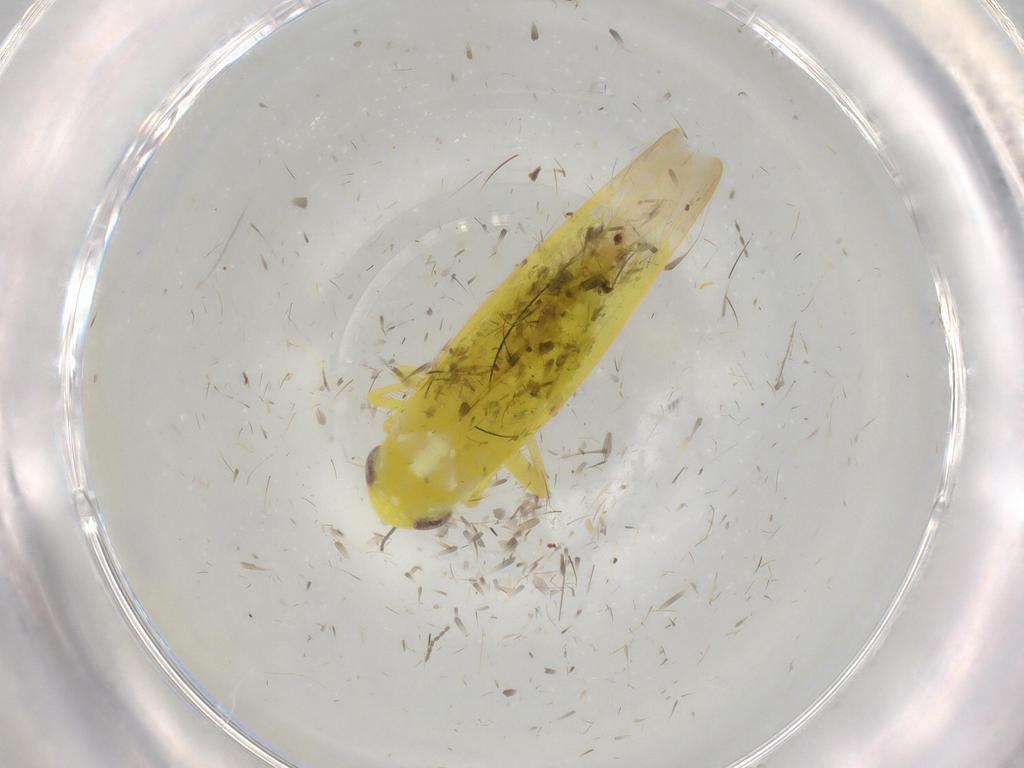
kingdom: Animalia
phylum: Arthropoda
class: Insecta
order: Hemiptera
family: Cicadellidae
